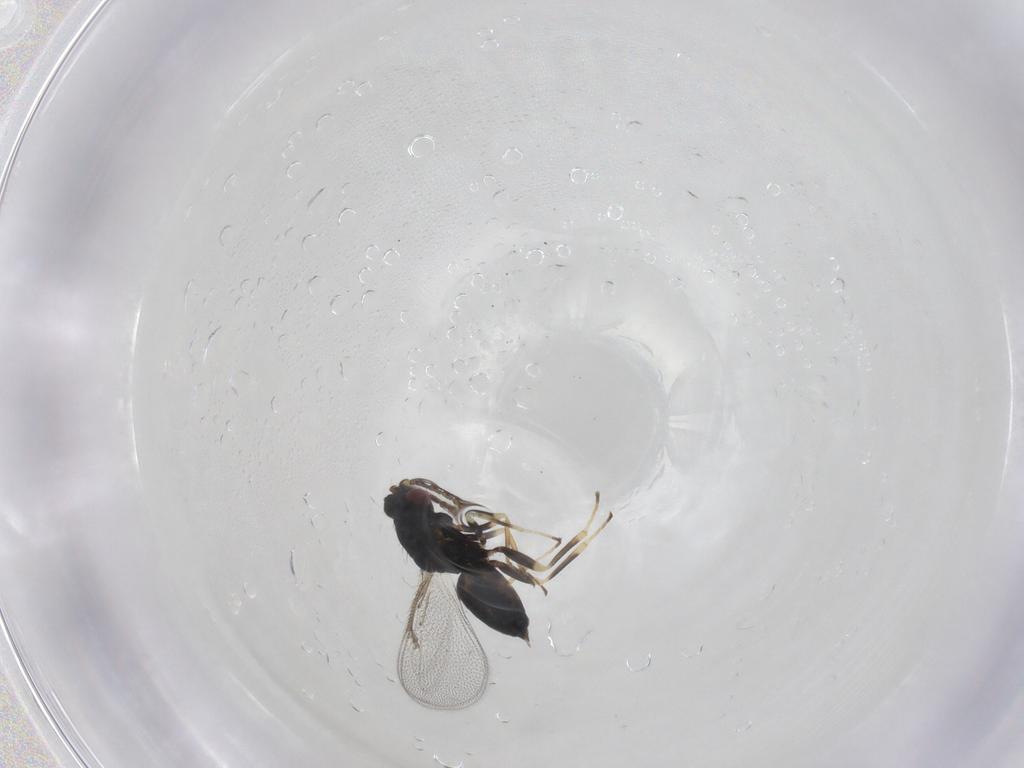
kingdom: Animalia
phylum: Arthropoda
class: Insecta
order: Hymenoptera
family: Eulophidae
